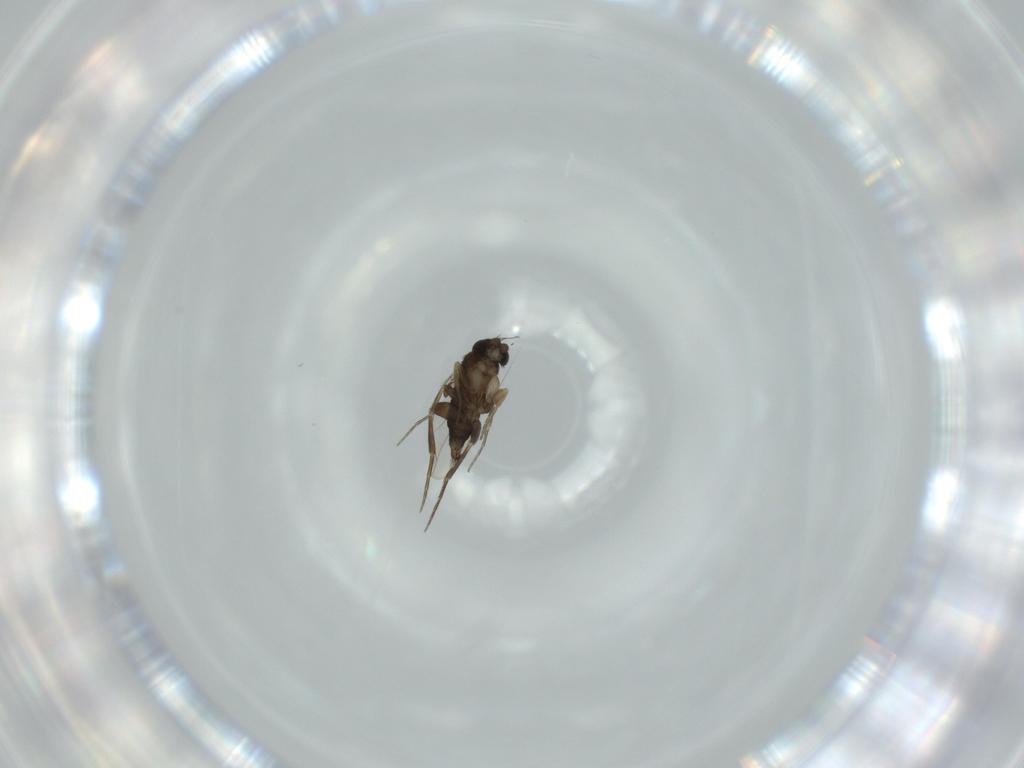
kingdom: Animalia
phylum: Arthropoda
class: Insecta
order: Diptera
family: Phoridae
